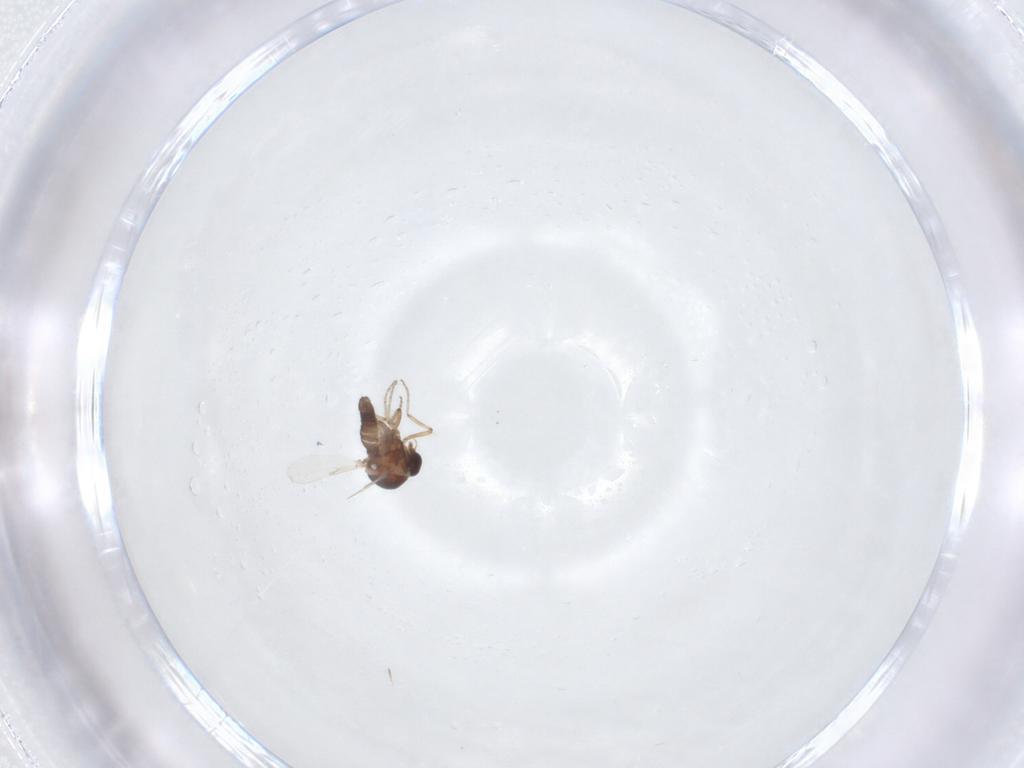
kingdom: Animalia
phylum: Arthropoda
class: Insecta
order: Diptera
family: Ceratopogonidae
